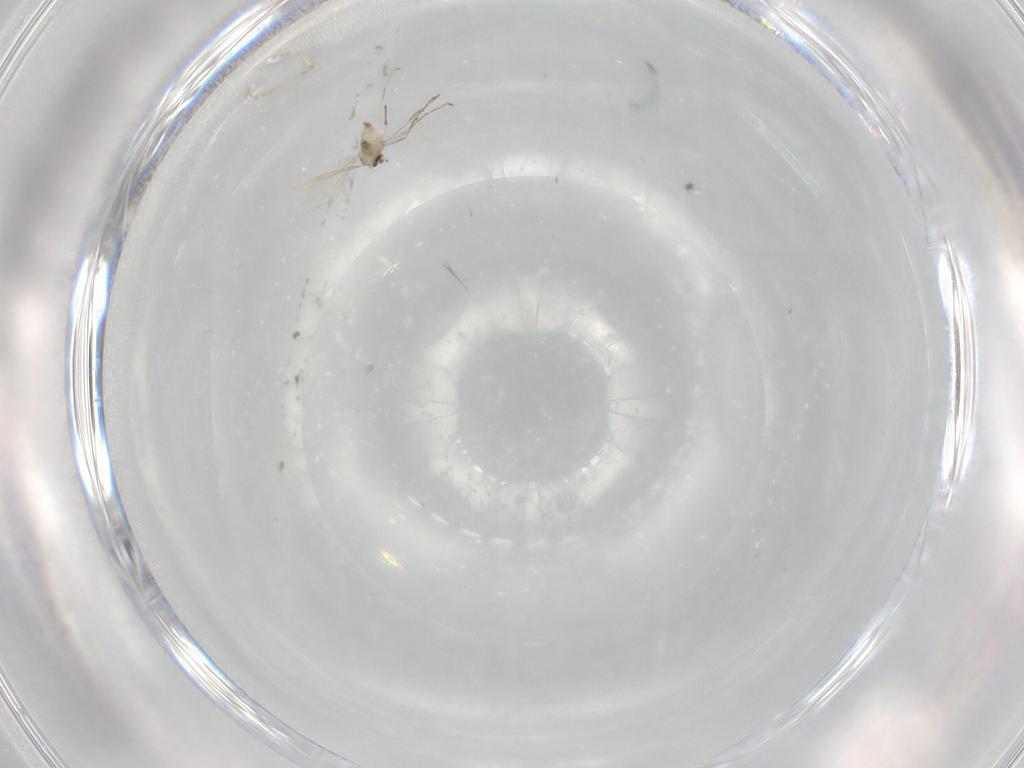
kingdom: Animalia
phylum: Arthropoda
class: Insecta
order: Diptera
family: Cecidomyiidae
